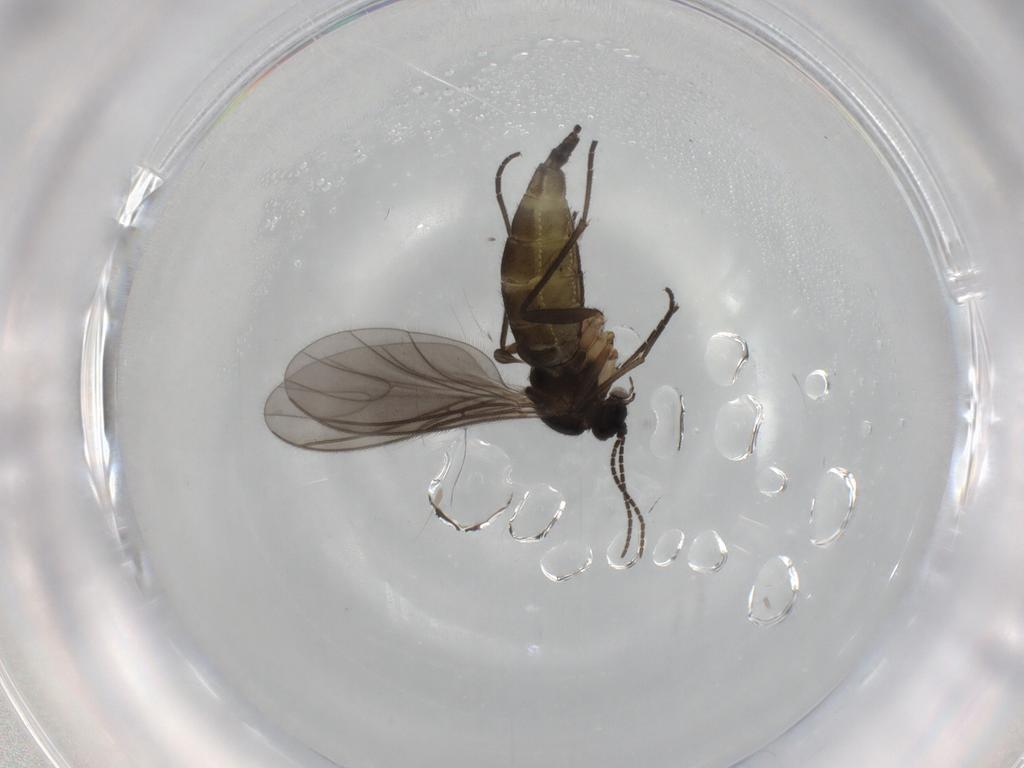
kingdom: Animalia
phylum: Arthropoda
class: Insecta
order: Diptera
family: Sciaridae
